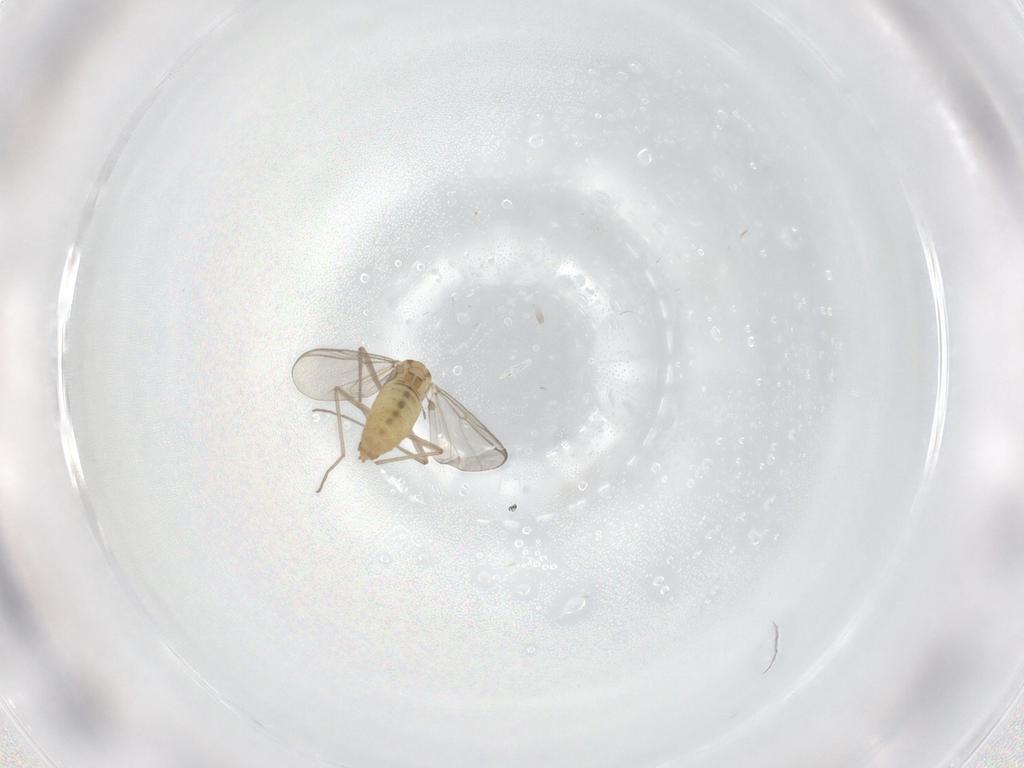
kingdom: Animalia
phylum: Arthropoda
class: Insecta
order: Diptera
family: Chironomidae
